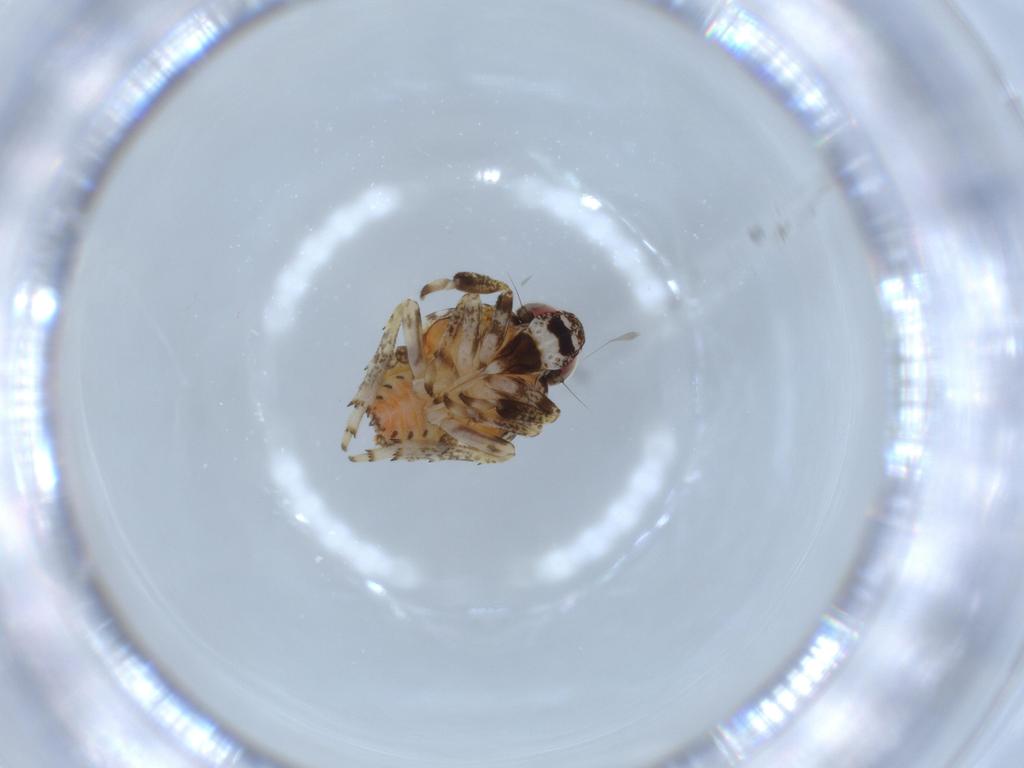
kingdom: Animalia
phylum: Arthropoda
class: Insecta
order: Hemiptera
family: Issidae
